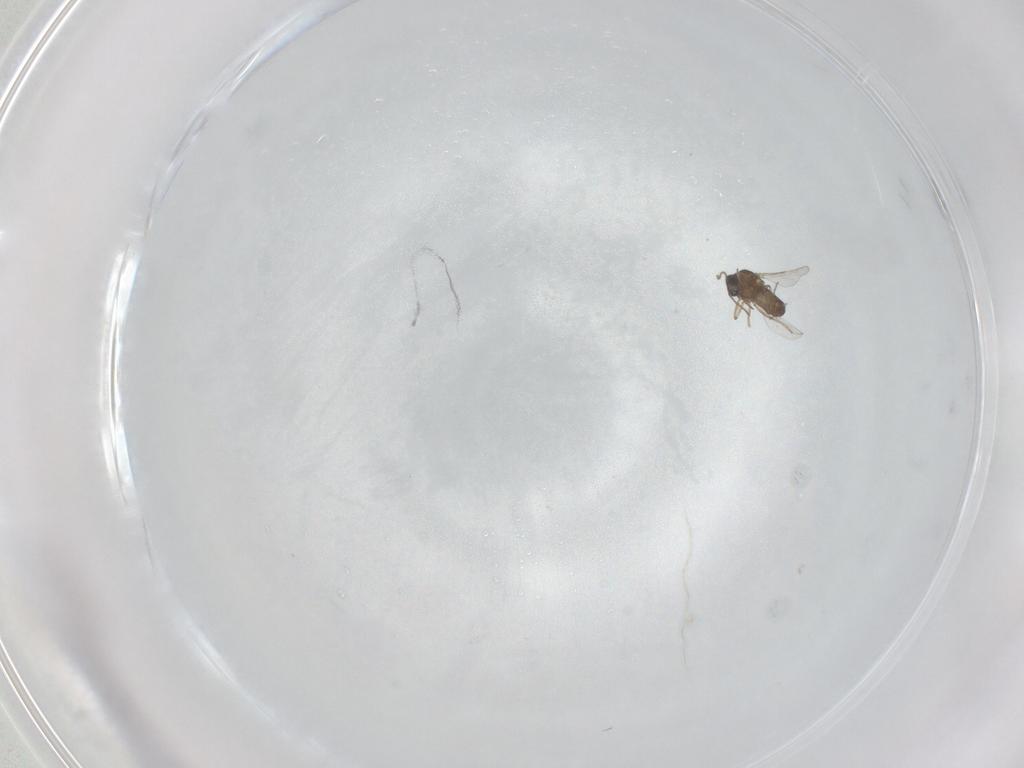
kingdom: Animalia
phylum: Arthropoda
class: Insecta
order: Diptera
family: Ceratopogonidae
